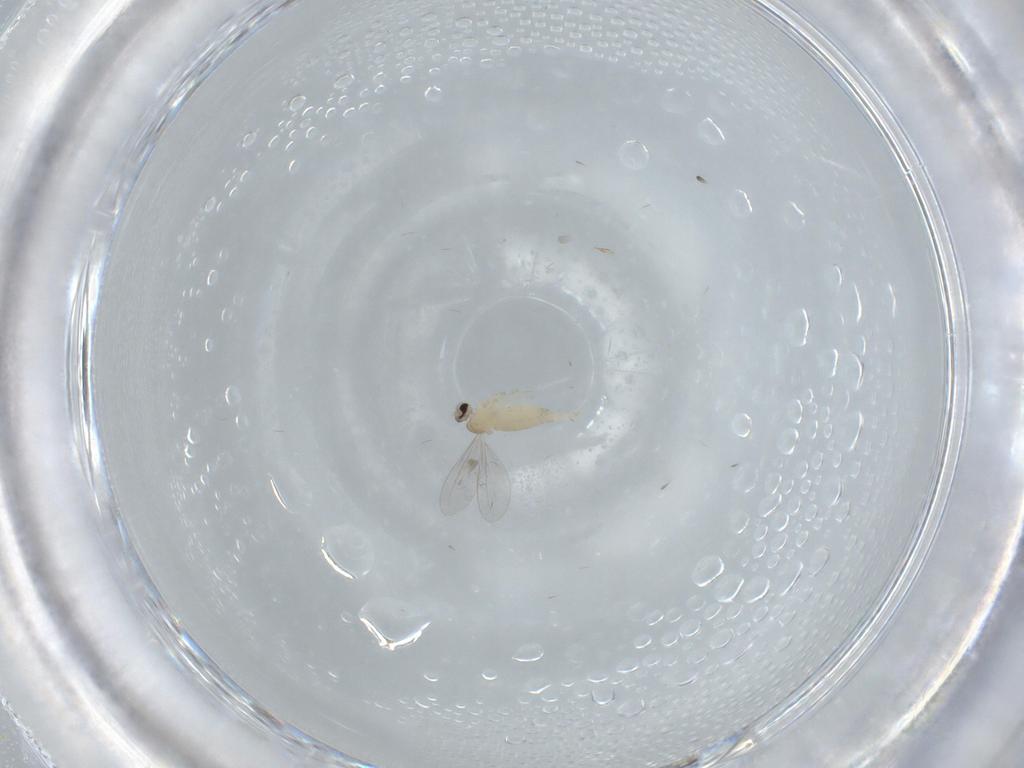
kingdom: Animalia
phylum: Arthropoda
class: Insecta
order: Diptera
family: Cecidomyiidae
